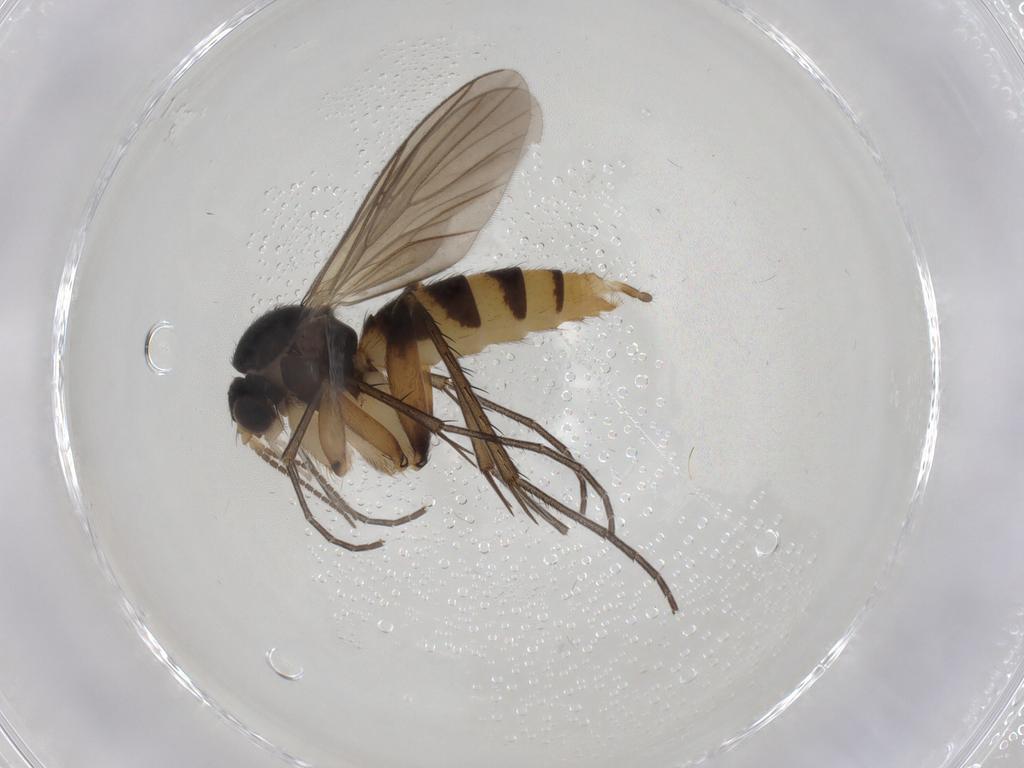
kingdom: Animalia
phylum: Arthropoda
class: Insecta
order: Diptera
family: Mycetophilidae
